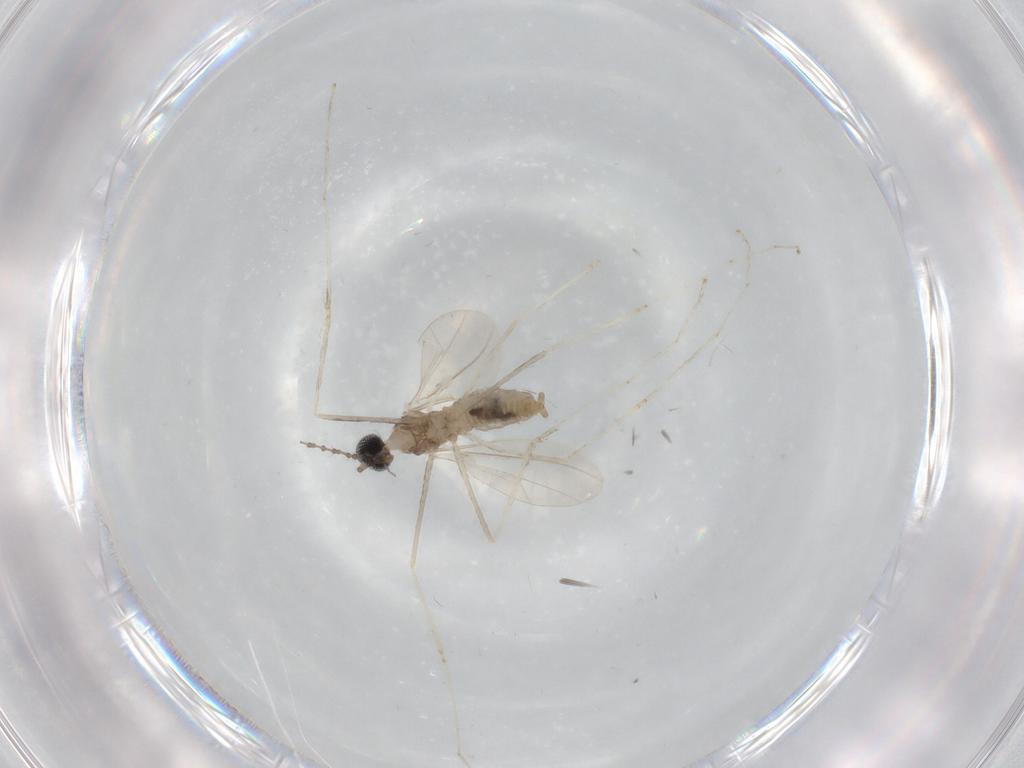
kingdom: Animalia
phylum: Arthropoda
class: Insecta
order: Diptera
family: Cecidomyiidae
